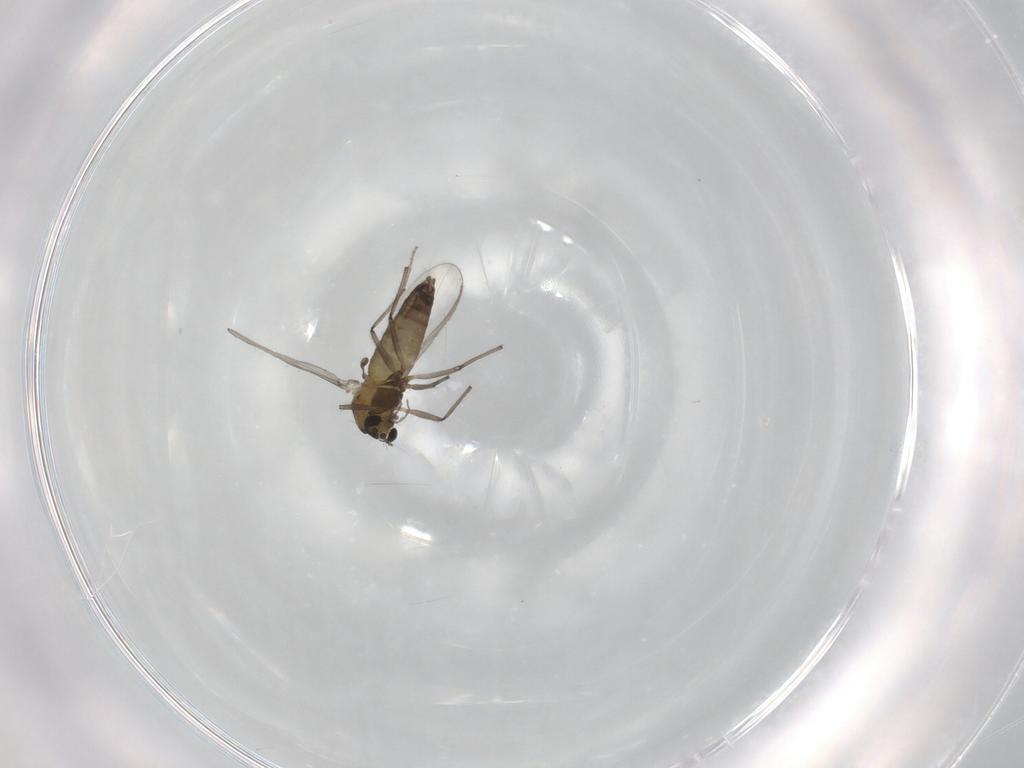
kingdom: Animalia
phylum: Arthropoda
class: Insecta
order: Diptera
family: Chironomidae
